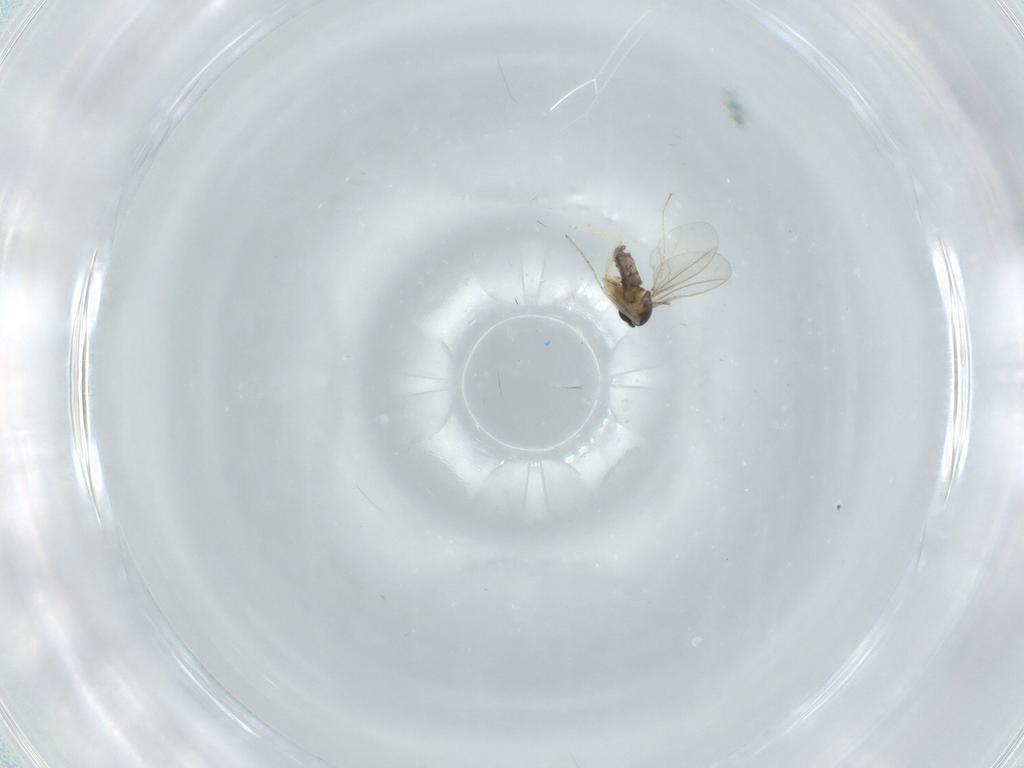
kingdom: Animalia
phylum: Arthropoda
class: Insecta
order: Diptera
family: Cecidomyiidae
